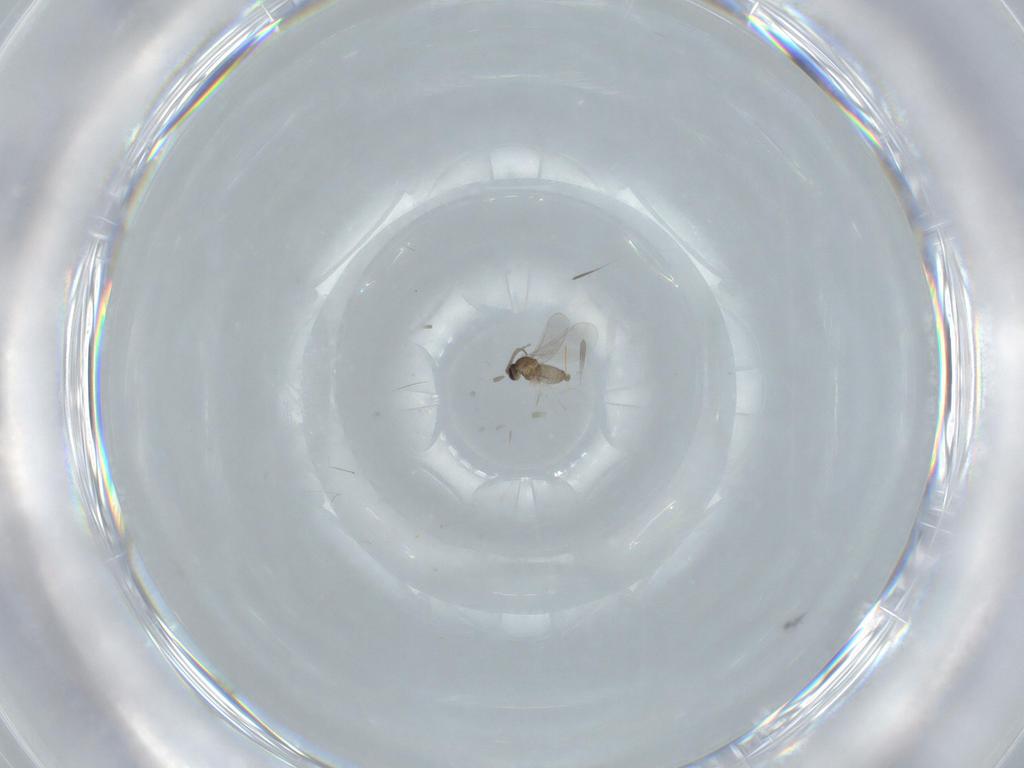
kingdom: Animalia
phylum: Arthropoda
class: Insecta
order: Diptera
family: Cecidomyiidae
